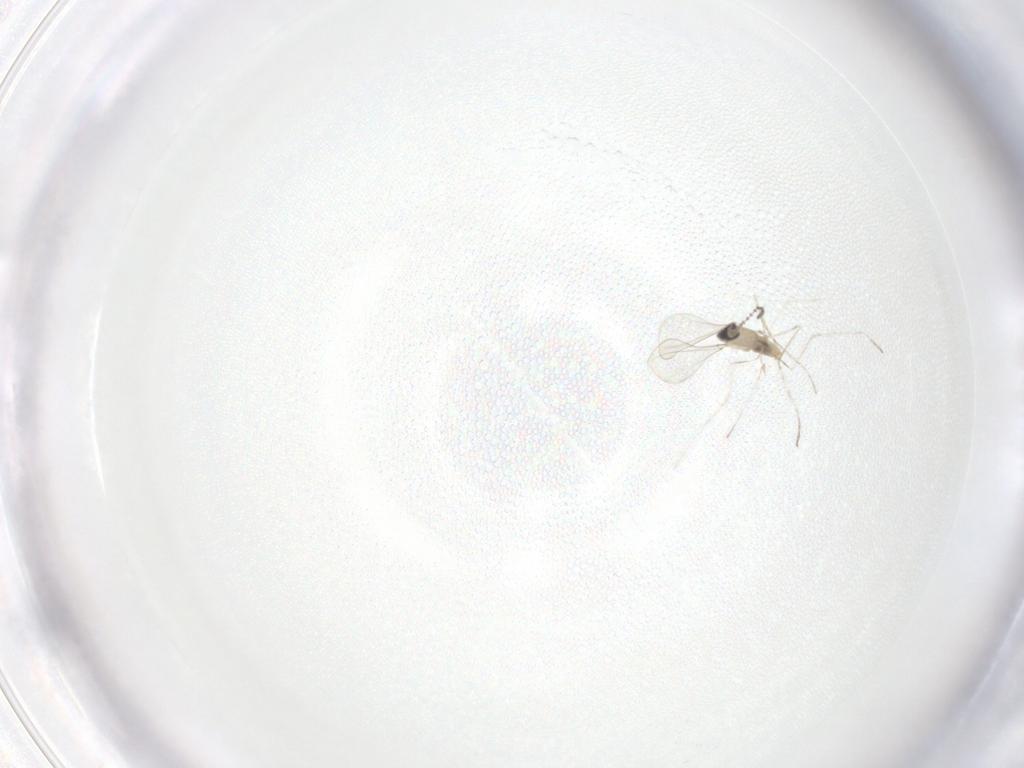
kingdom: Animalia
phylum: Arthropoda
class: Insecta
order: Diptera
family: Cecidomyiidae
